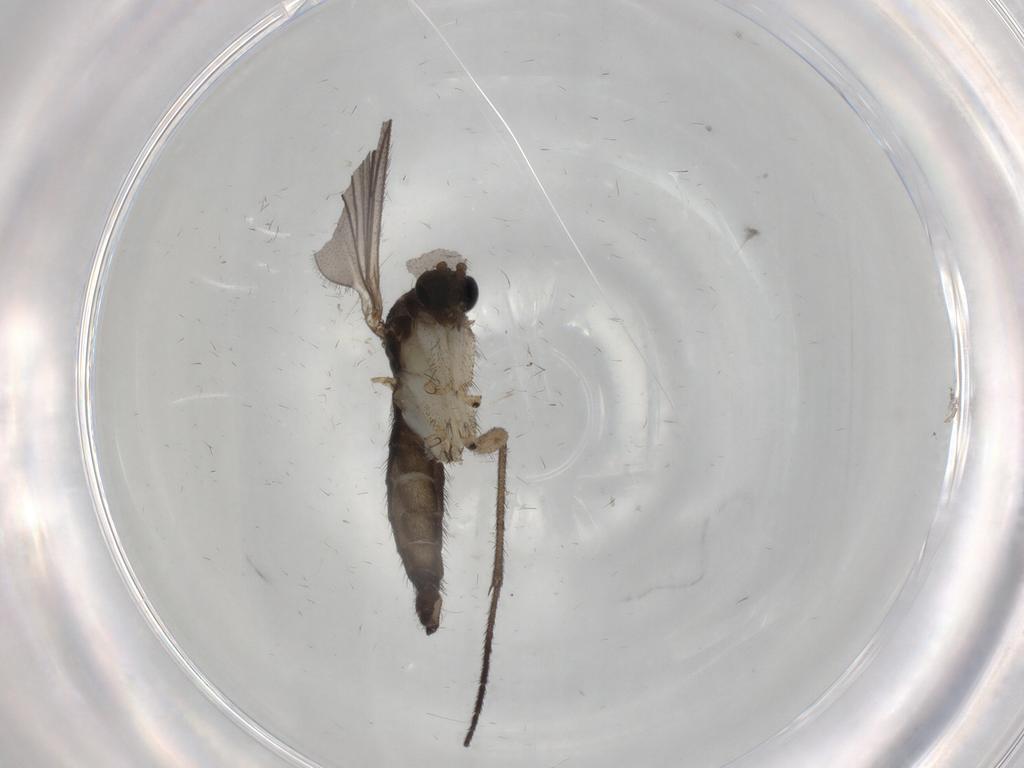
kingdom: Animalia
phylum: Arthropoda
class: Insecta
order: Diptera
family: Sciaridae
